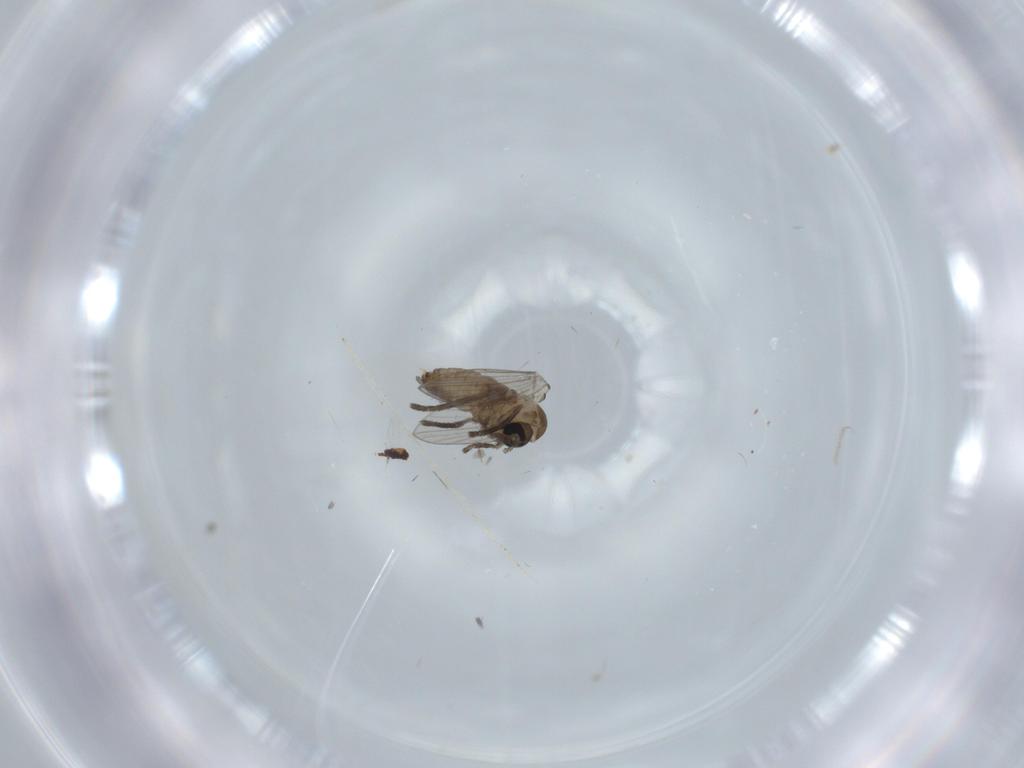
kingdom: Animalia
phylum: Arthropoda
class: Insecta
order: Diptera
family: Psychodidae
